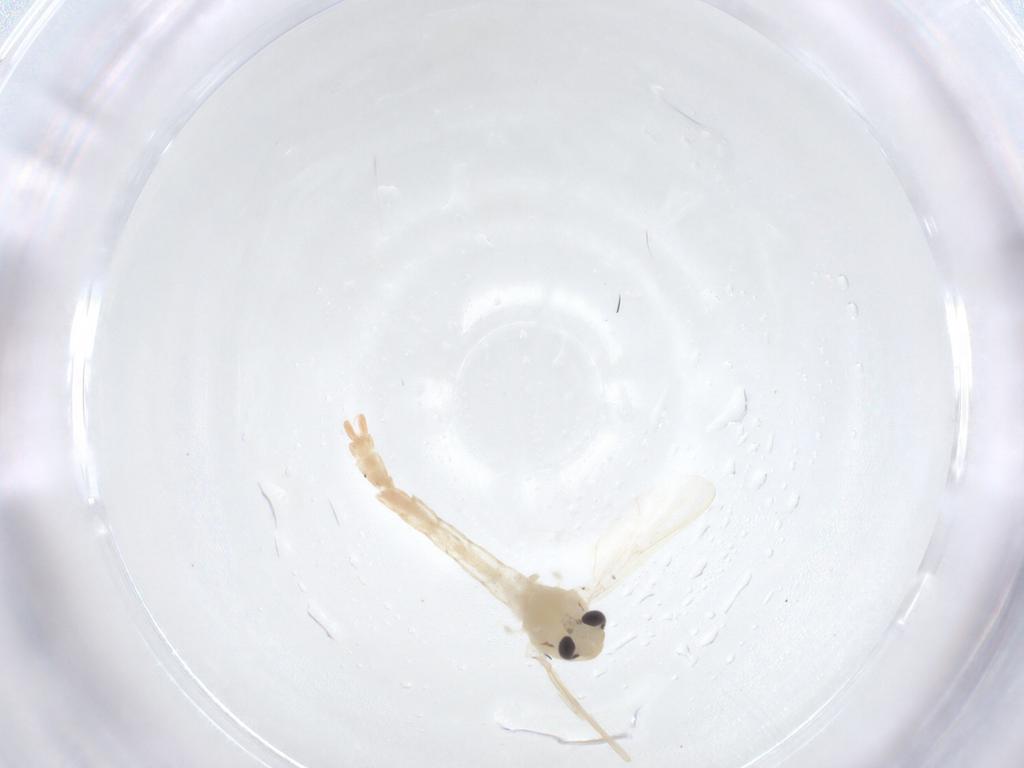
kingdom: Animalia
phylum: Arthropoda
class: Insecta
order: Diptera
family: Chironomidae
